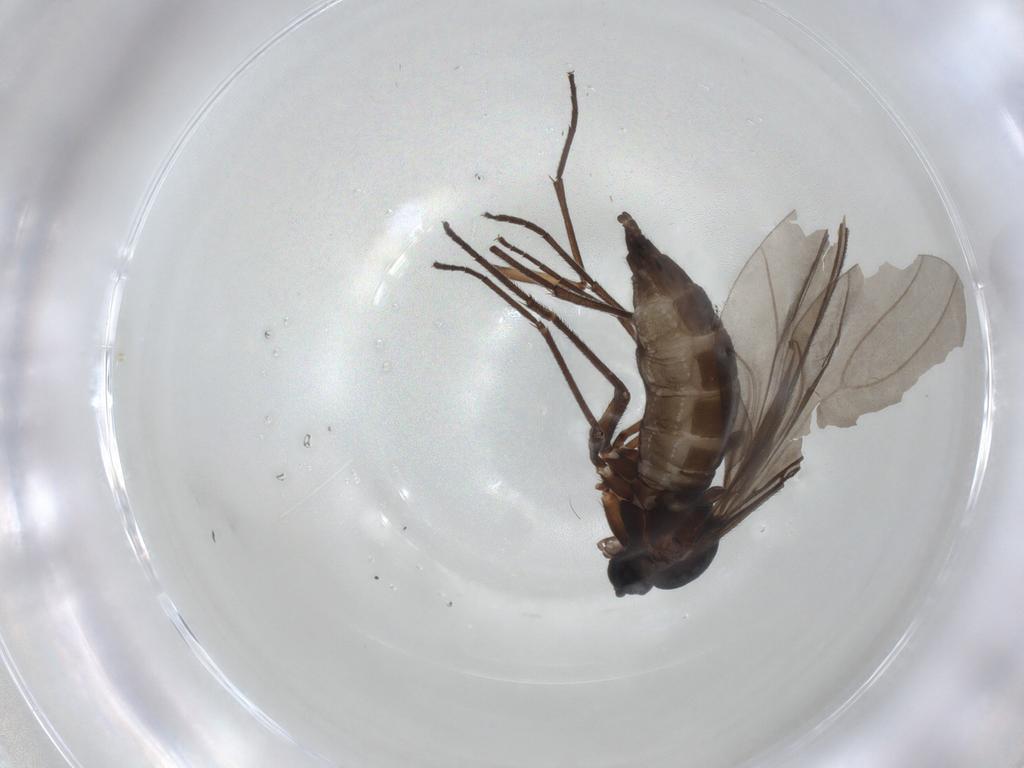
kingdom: Animalia
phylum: Arthropoda
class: Insecta
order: Diptera
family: Sciaridae
